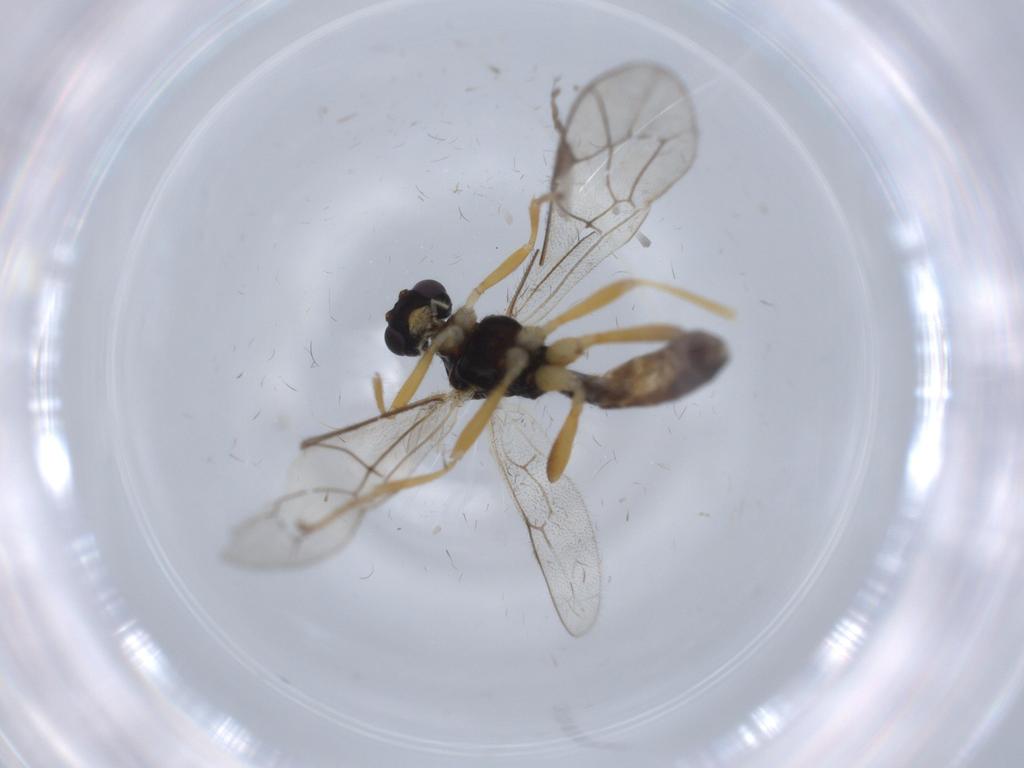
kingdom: Animalia
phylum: Arthropoda
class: Insecta
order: Hymenoptera
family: Ichneumonidae
